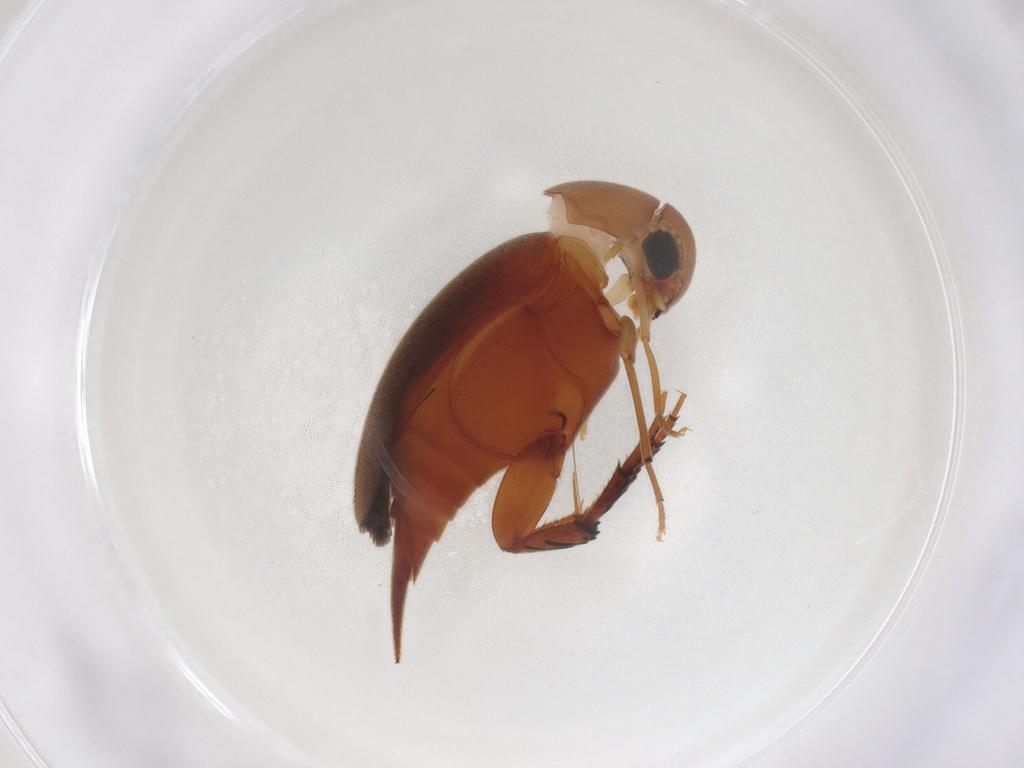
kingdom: Animalia
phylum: Arthropoda
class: Insecta
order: Coleoptera
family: Mordellidae
